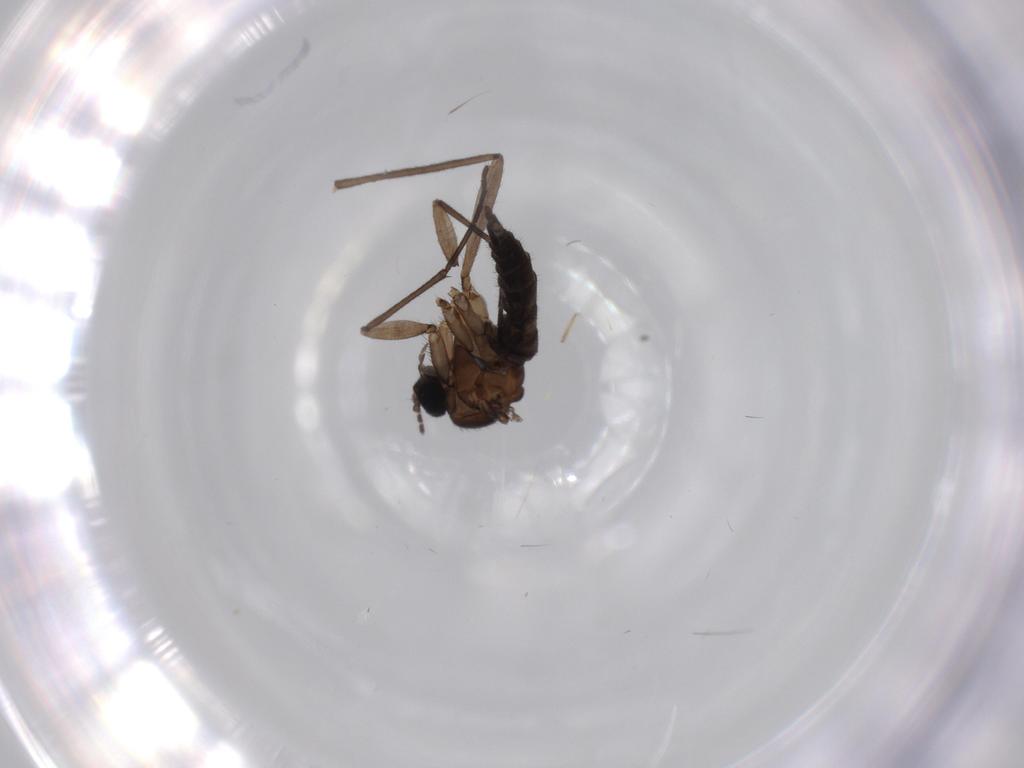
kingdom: Animalia
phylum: Arthropoda
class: Insecta
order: Diptera
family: Sciaridae
